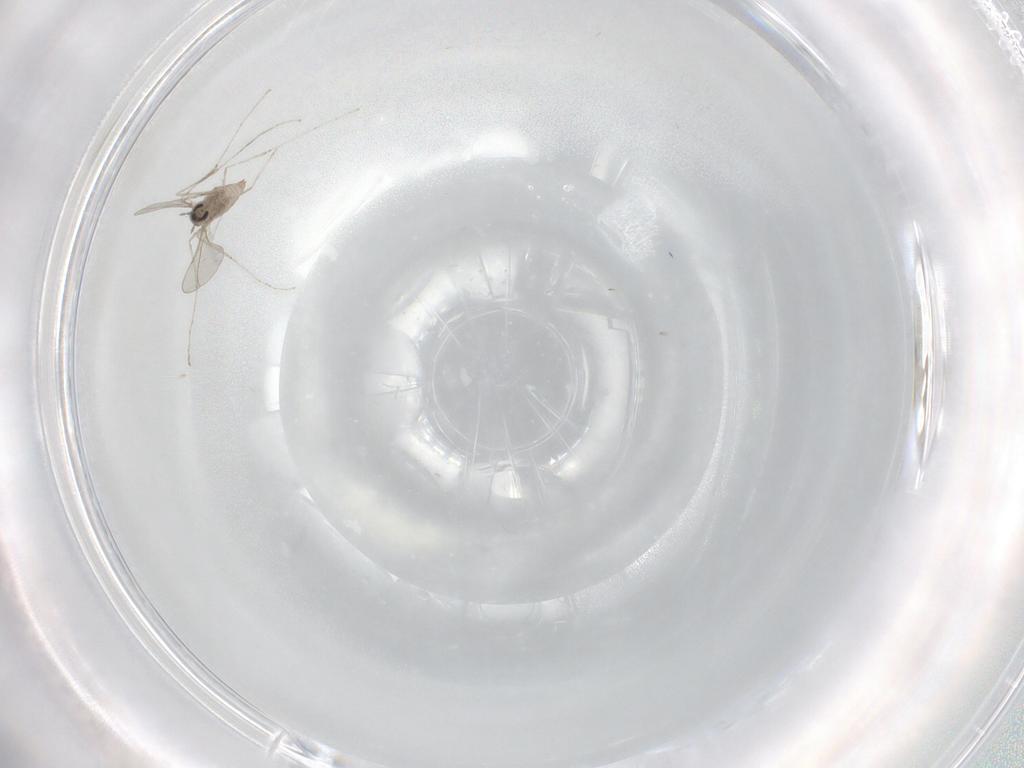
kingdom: Animalia
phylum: Arthropoda
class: Insecta
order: Diptera
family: Cecidomyiidae
